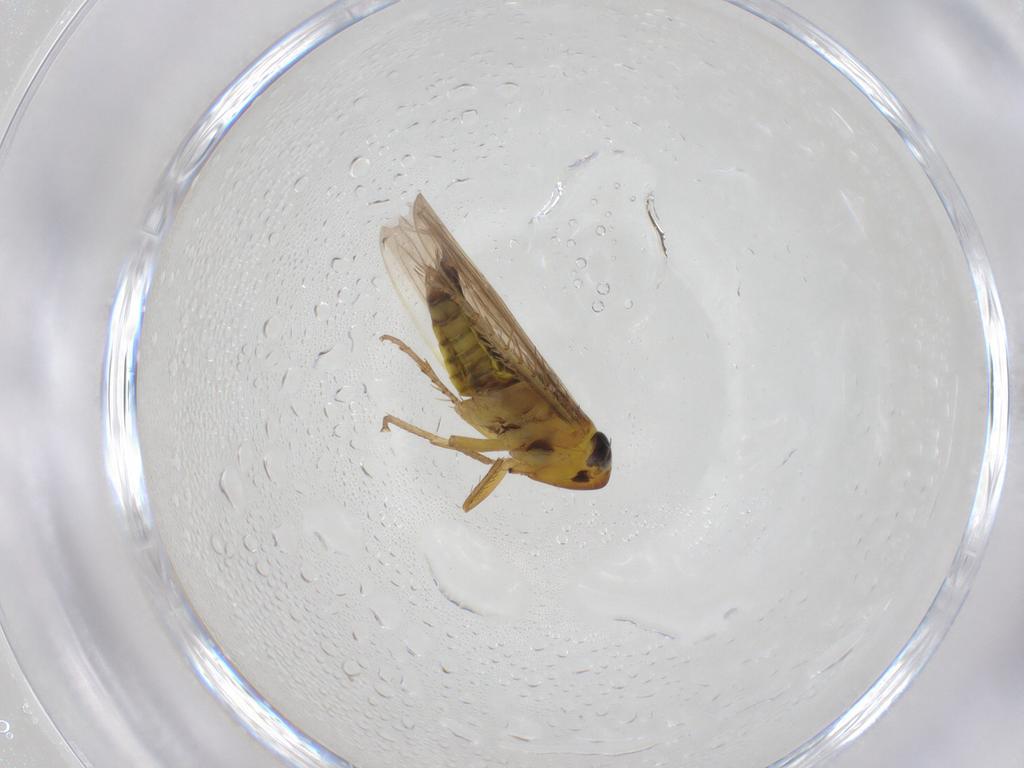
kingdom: Animalia
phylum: Arthropoda
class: Insecta
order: Hemiptera
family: Cicadellidae
